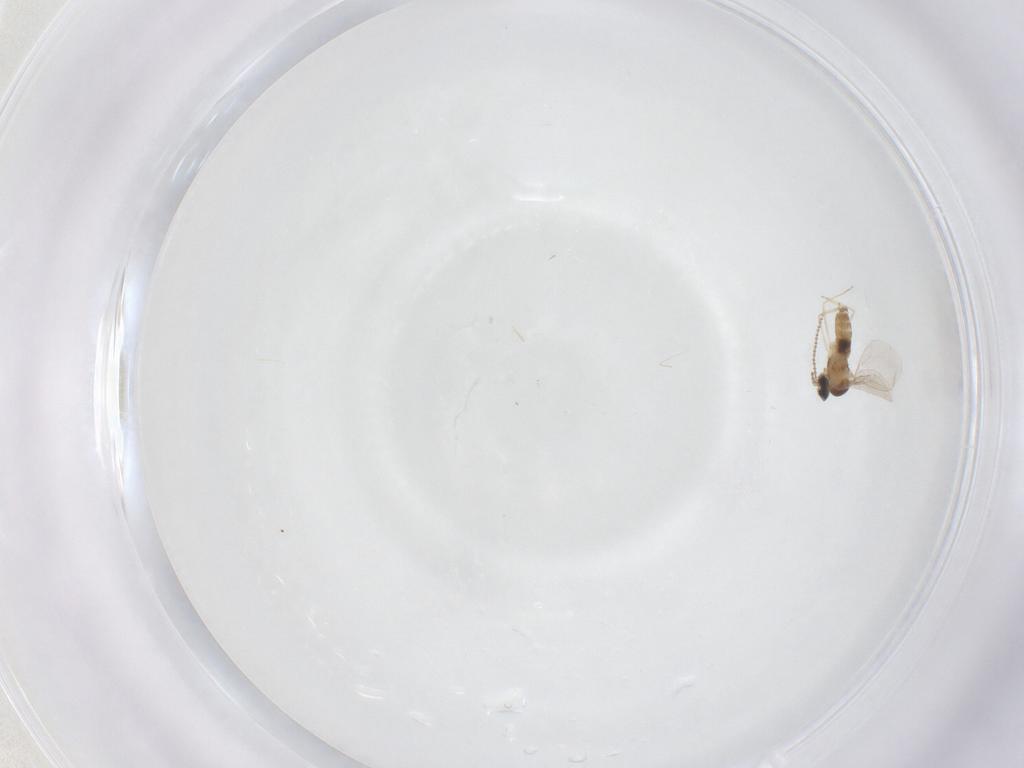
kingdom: Animalia
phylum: Arthropoda
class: Insecta
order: Diptera
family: Cecidomyiidae
